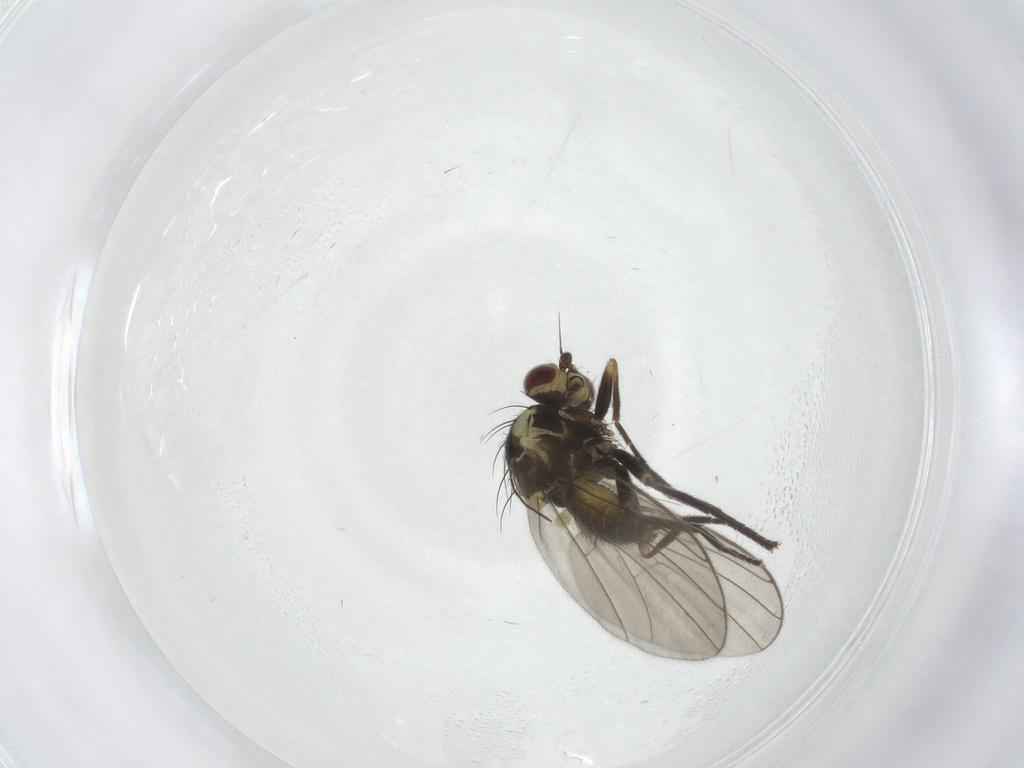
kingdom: Animalia
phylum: Arthropoda
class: Insecta
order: Diptera
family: Agromyzidae
